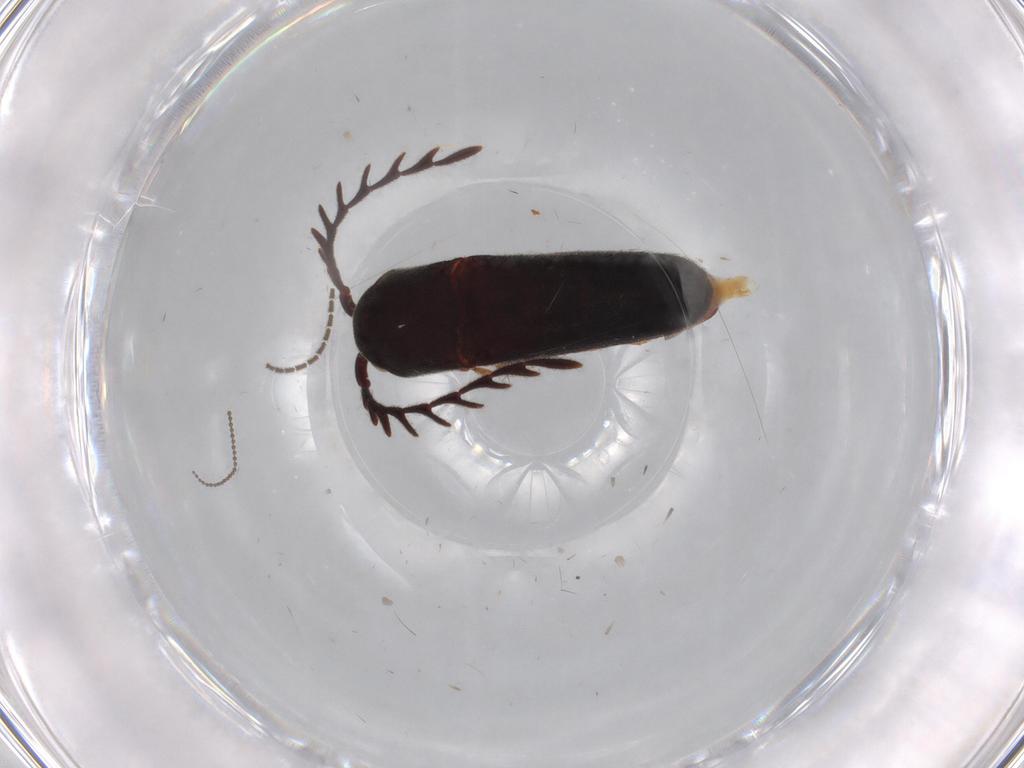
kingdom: Animalia
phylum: Arthropoda
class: Insecta
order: Coleoptera
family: Eucnemidae
